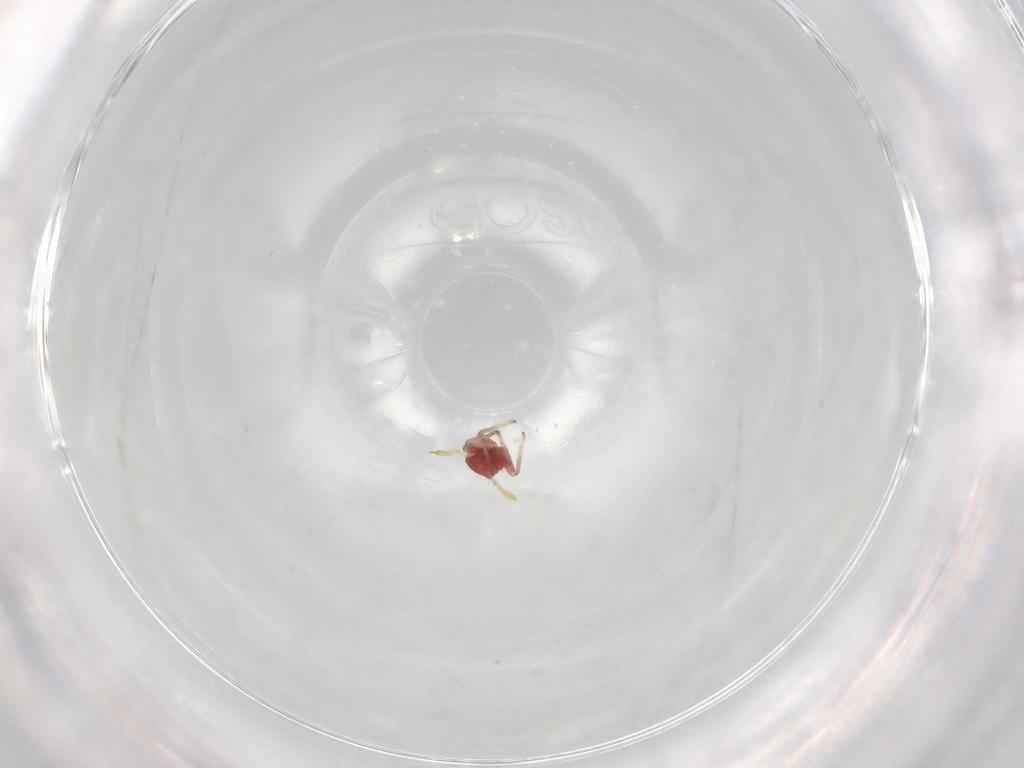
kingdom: Animalia
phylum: Arthropoda
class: Insecta
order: Hemiptera
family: Miridae
